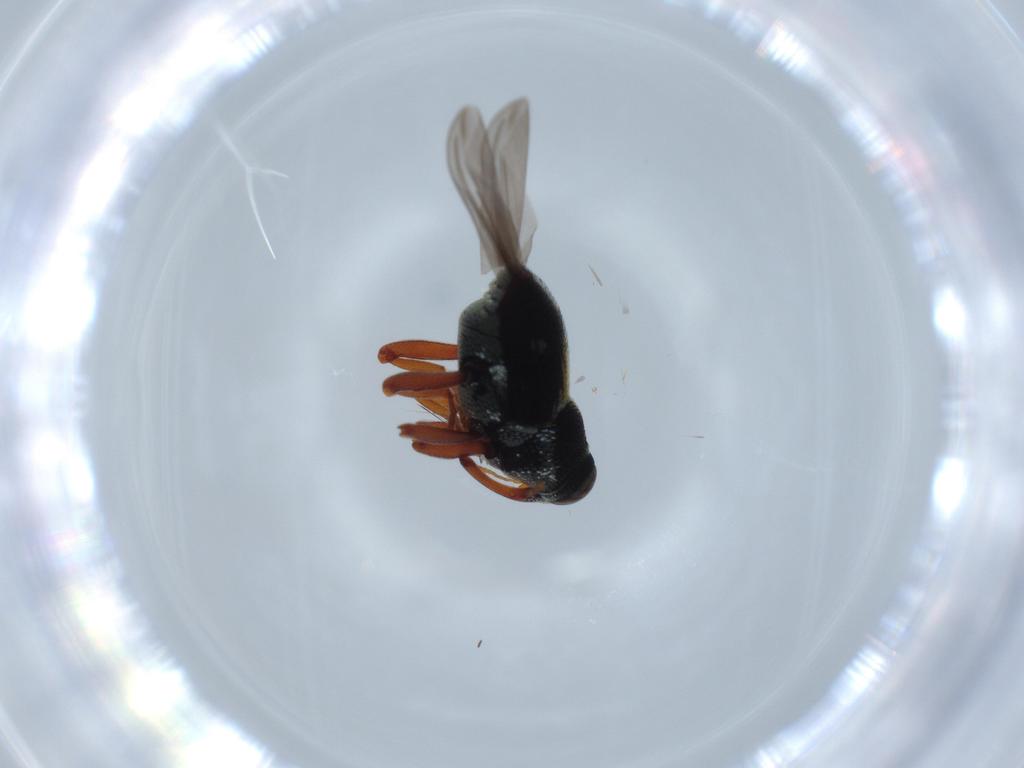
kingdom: Animalia
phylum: Arthropoda
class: Insecta
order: Coleoptera
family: Curculionidae
